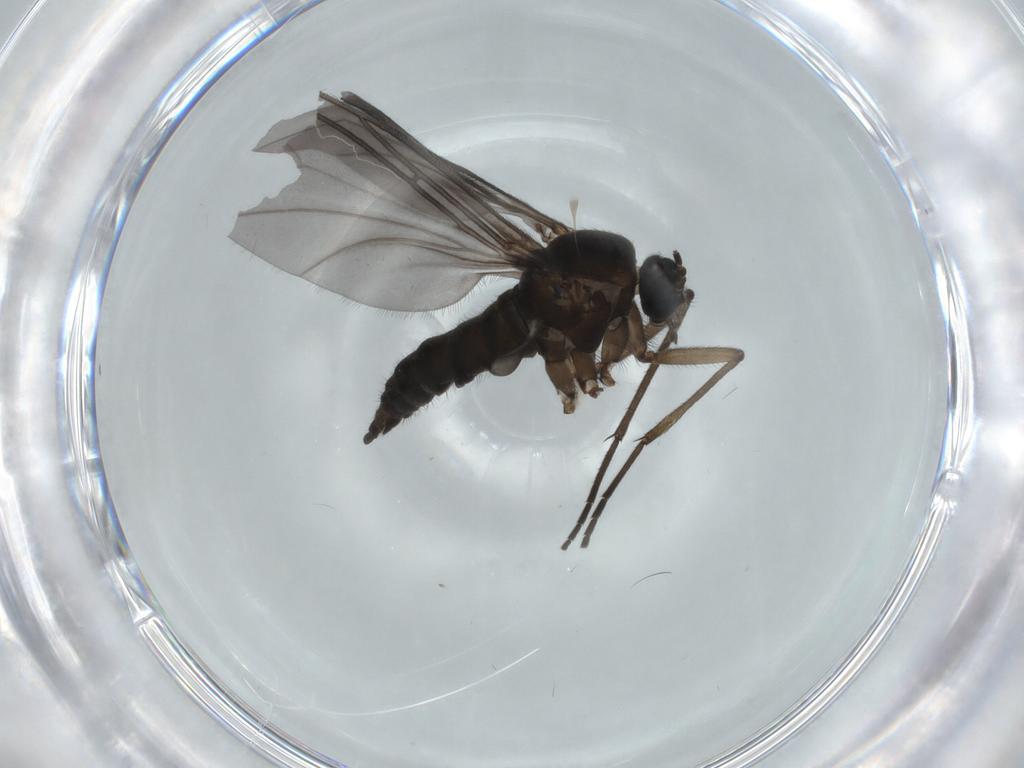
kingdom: Animalia
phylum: Arthropoda
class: Insecta
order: Diptera
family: Sciaridae
